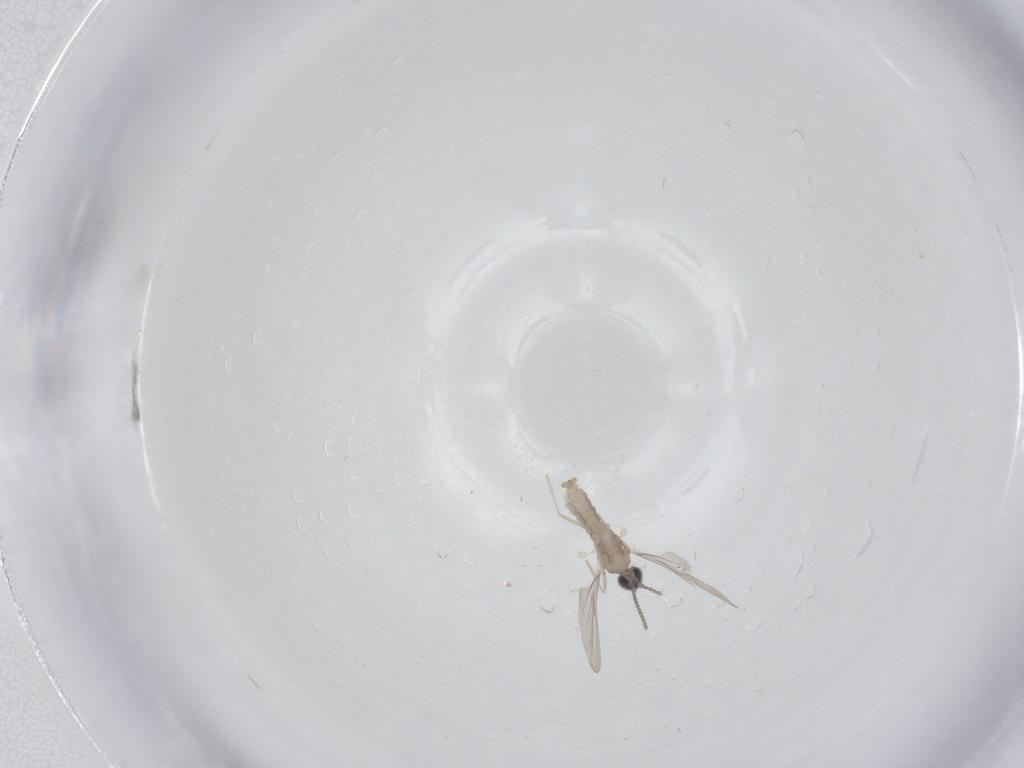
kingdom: Animalia
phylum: Arthropoda
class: Insecta
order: Diptera
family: Cecidomyiidae
